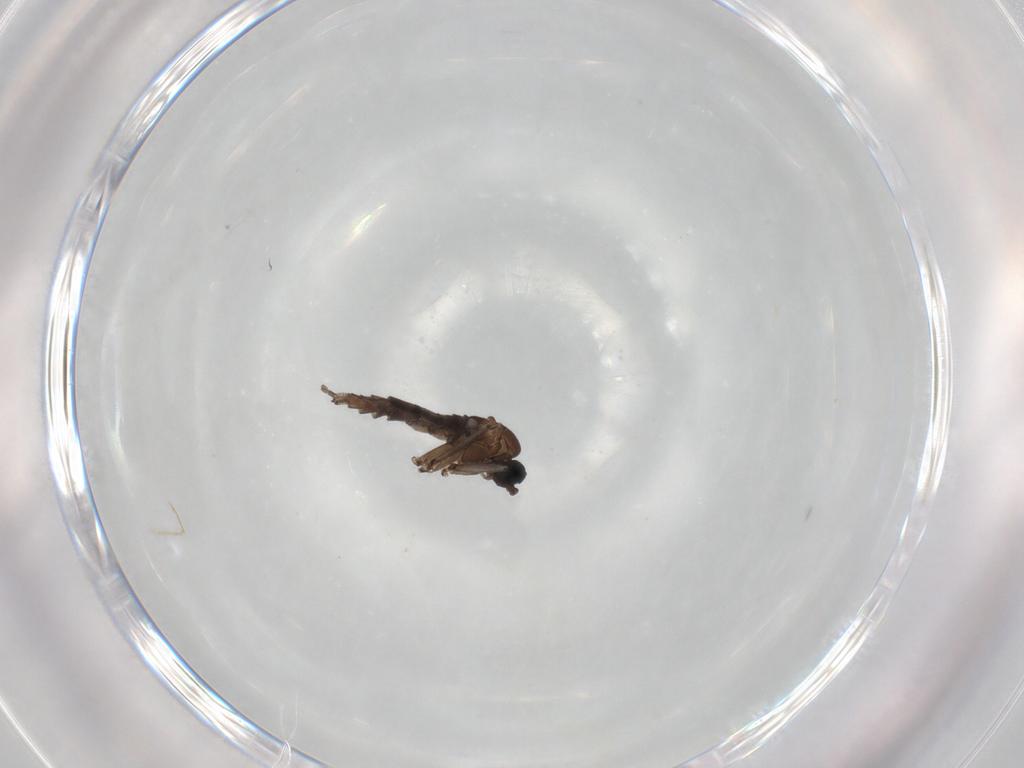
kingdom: Animalia
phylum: Arthropoda
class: Insecta
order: Diptera
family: Sciaridae
